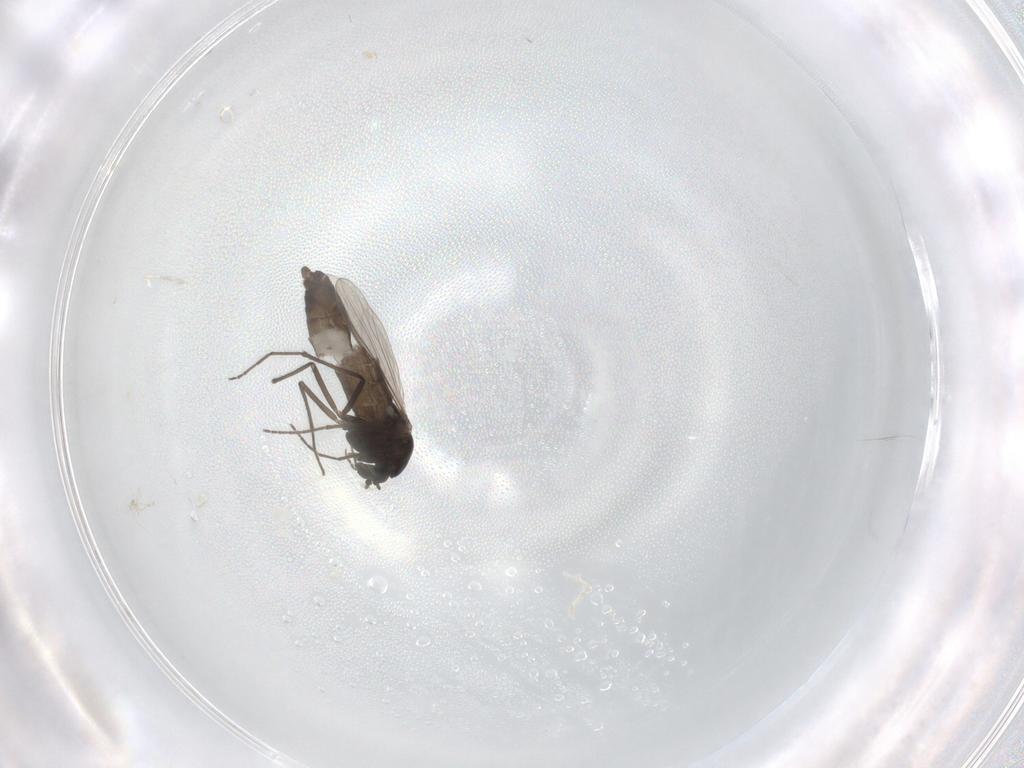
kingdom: Animalia
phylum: Arthropoda
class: Insecta
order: Diptera
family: Chironomidae
